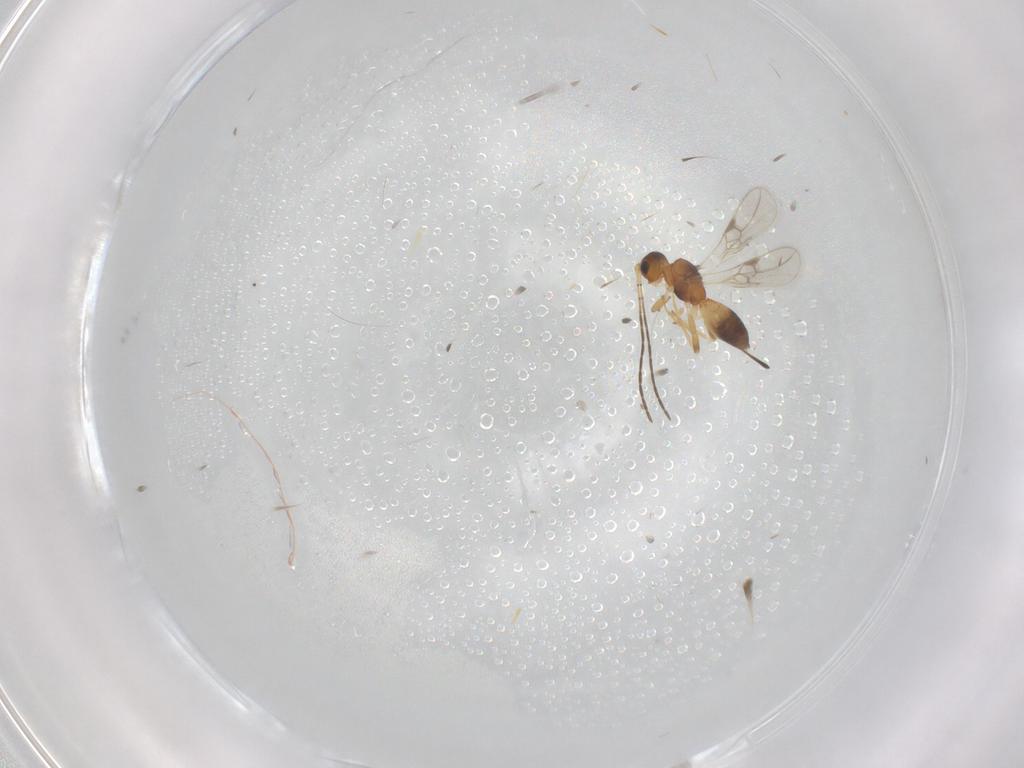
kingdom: Animalia
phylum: Arthropoda
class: Insecta
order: Hymenoptera
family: Braconidae
